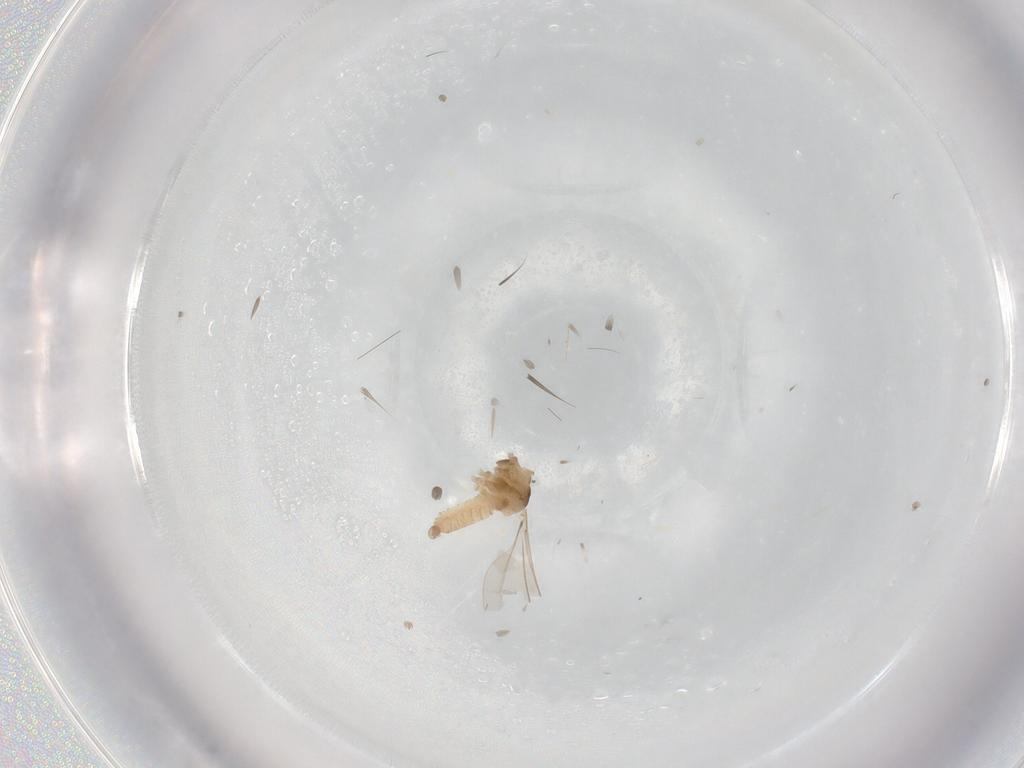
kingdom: Animalia
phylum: Arthropoda
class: Insecta
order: Diptera
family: Cecidomyiidae
